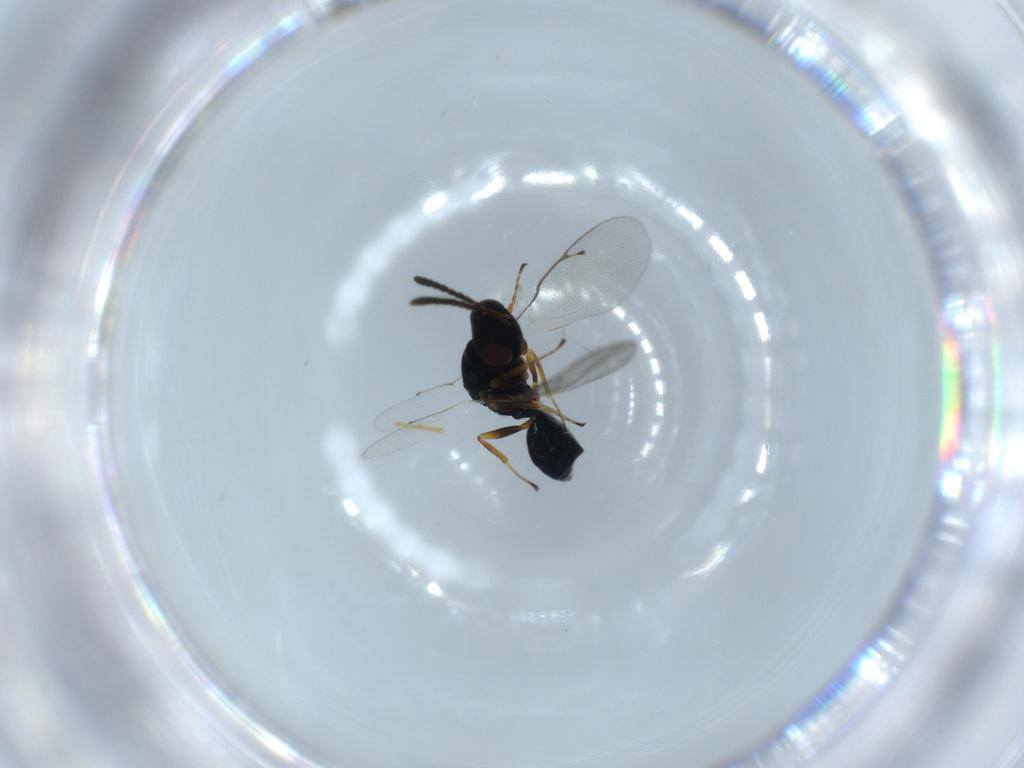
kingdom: Animalia
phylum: Arthropoda
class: Insecta
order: Hymenoptera
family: Pteromalidae
